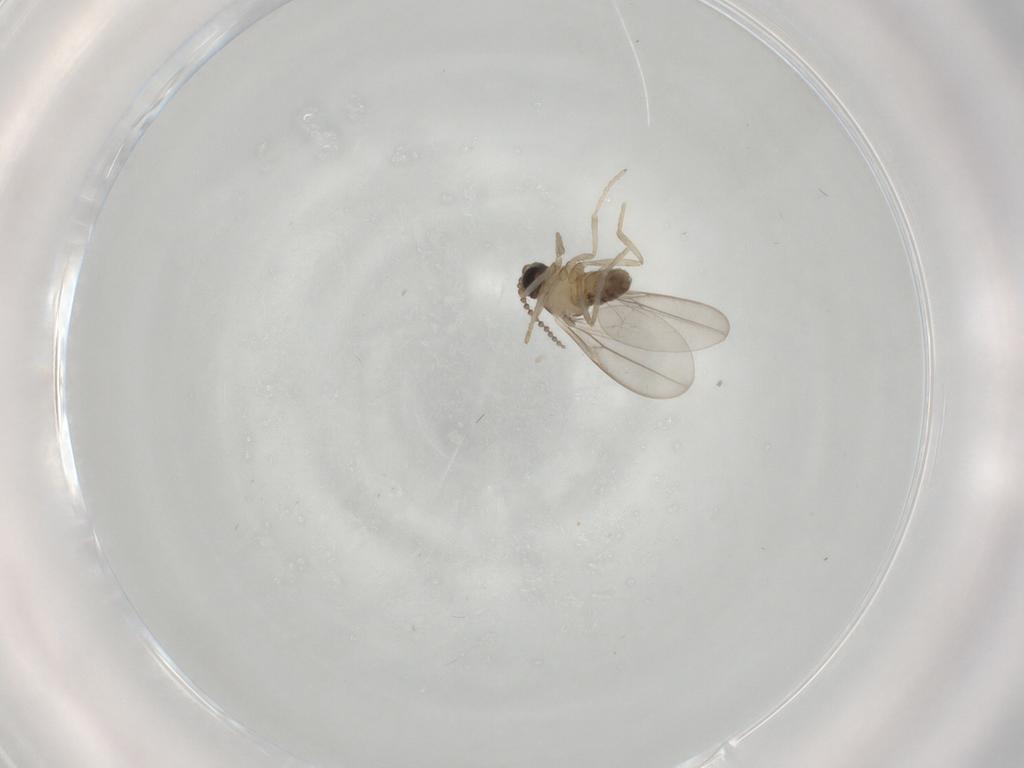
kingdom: Animalia
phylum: Arthropoda
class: Insecta
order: Diptera
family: Cecidomyiidae
